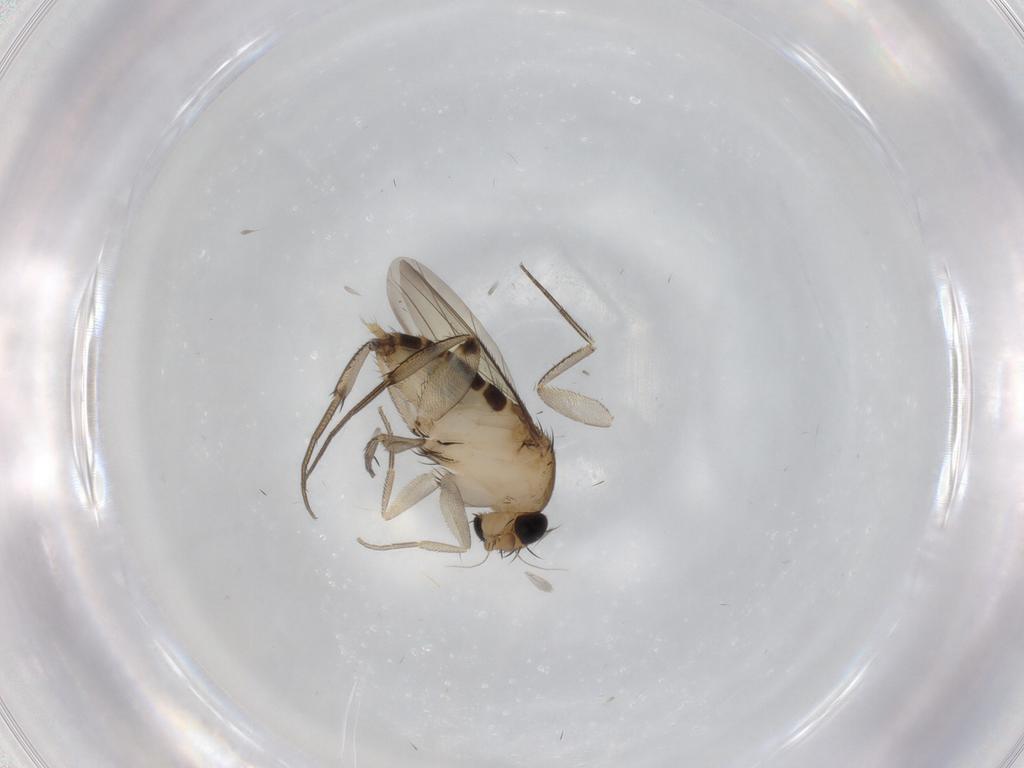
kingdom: Animalia
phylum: Arthropoda
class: Insecta
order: Diptera
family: Phoridae
